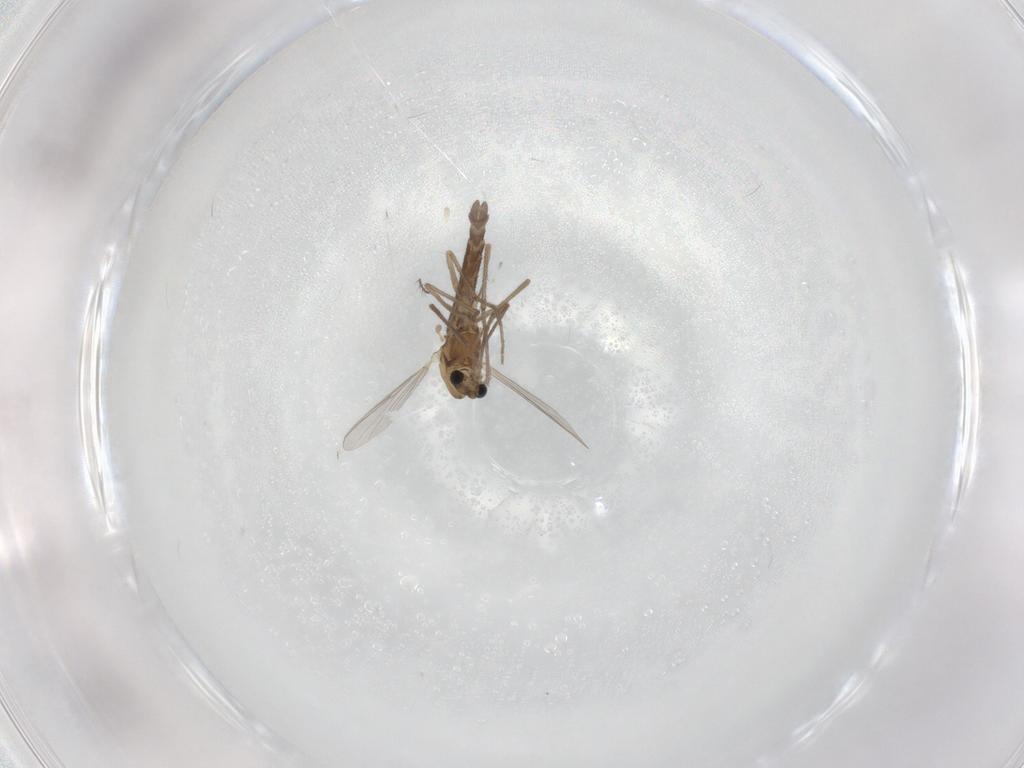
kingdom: Animalia
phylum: Arthropoda
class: Insecta
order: Diptera
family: Chironomidae
